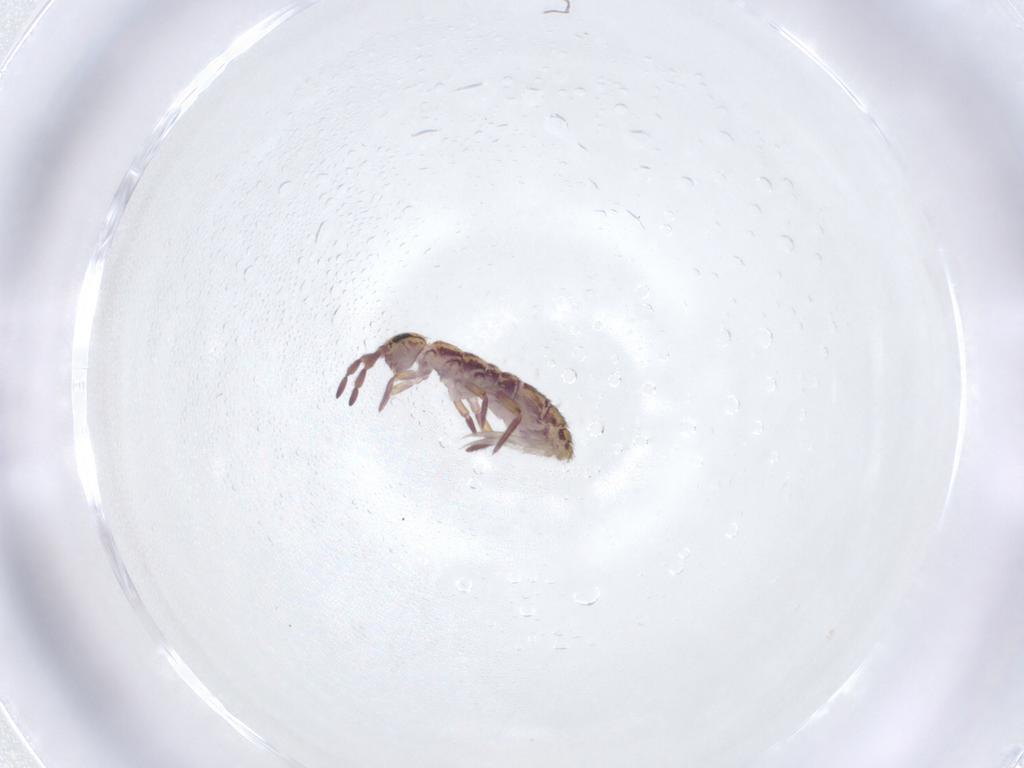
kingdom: Animalia
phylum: Arthropoda
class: Collembola
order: Entomobryomorpha
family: Isotomidae
